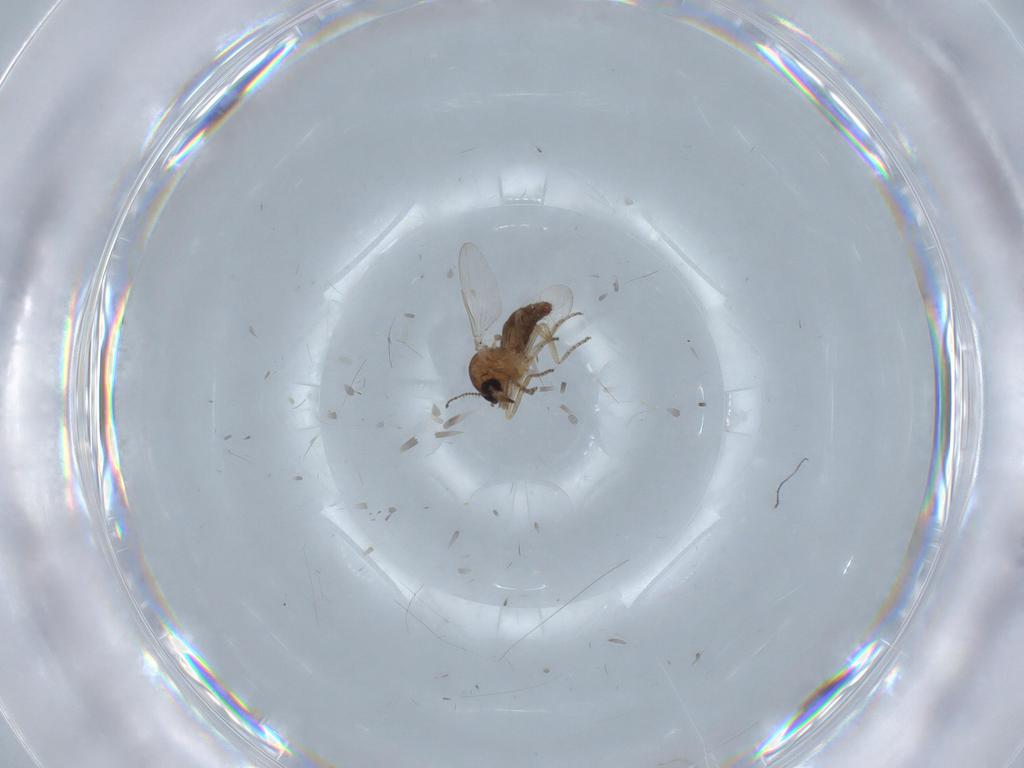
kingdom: Animalia
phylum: Arthropoda
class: Insecta
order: Diptera
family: Ceratopogonidae
